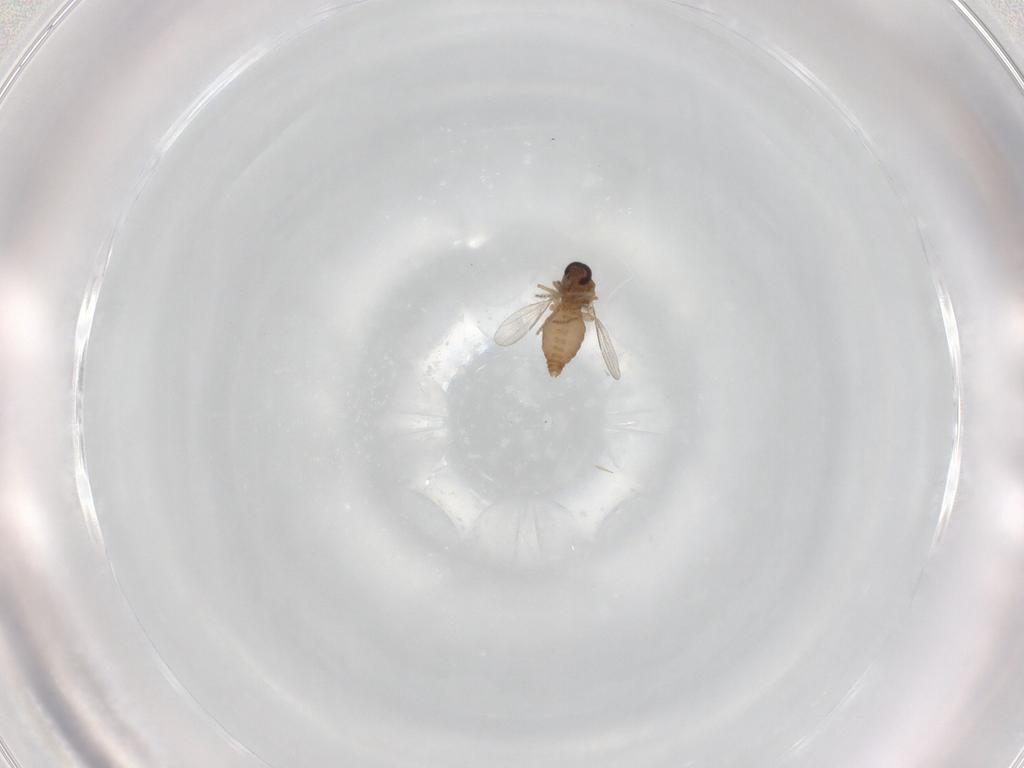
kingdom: Animalia
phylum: Arthropoda
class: Insecta
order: Diptera
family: Ceratopogonidae
